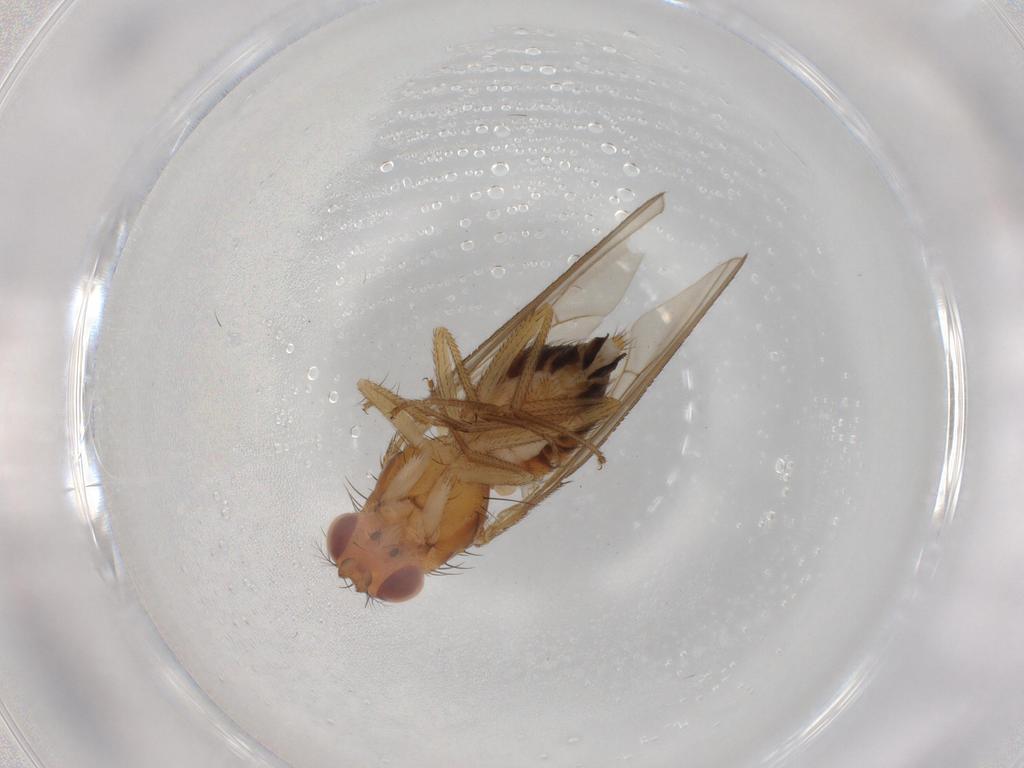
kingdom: Animalia
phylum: Arthropoda
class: Insecta
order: Diptera
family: Drosophilidae
